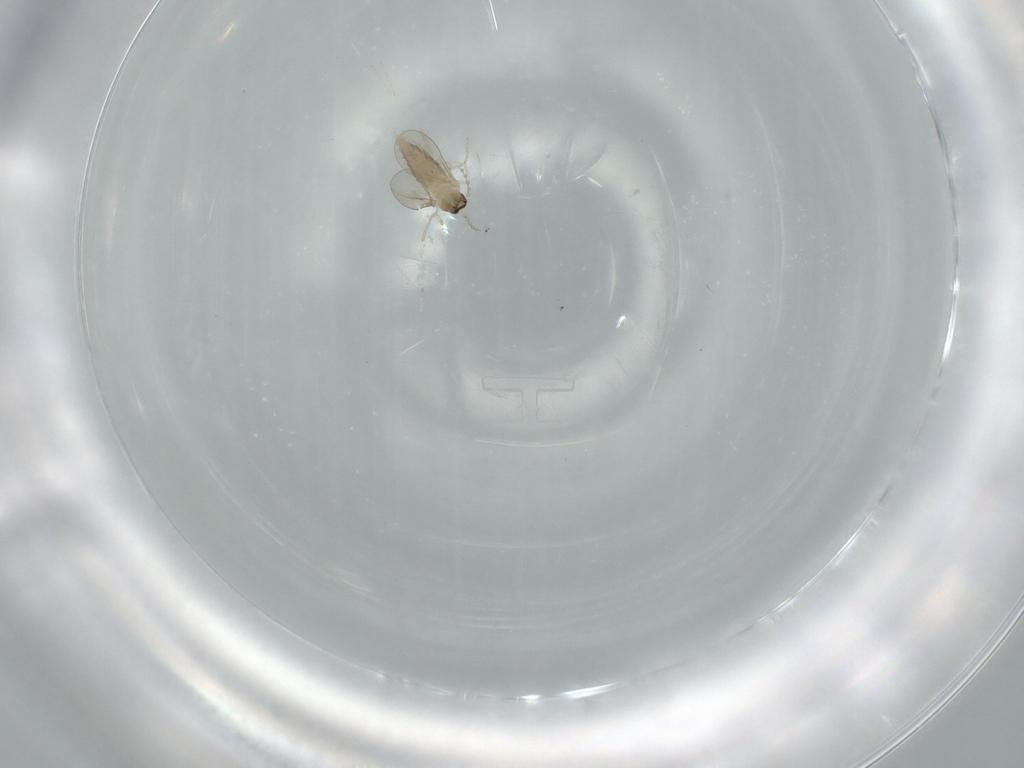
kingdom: Animalia
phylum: Arthropoda
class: Insecta
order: Diptera
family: Cecidomyiidae
